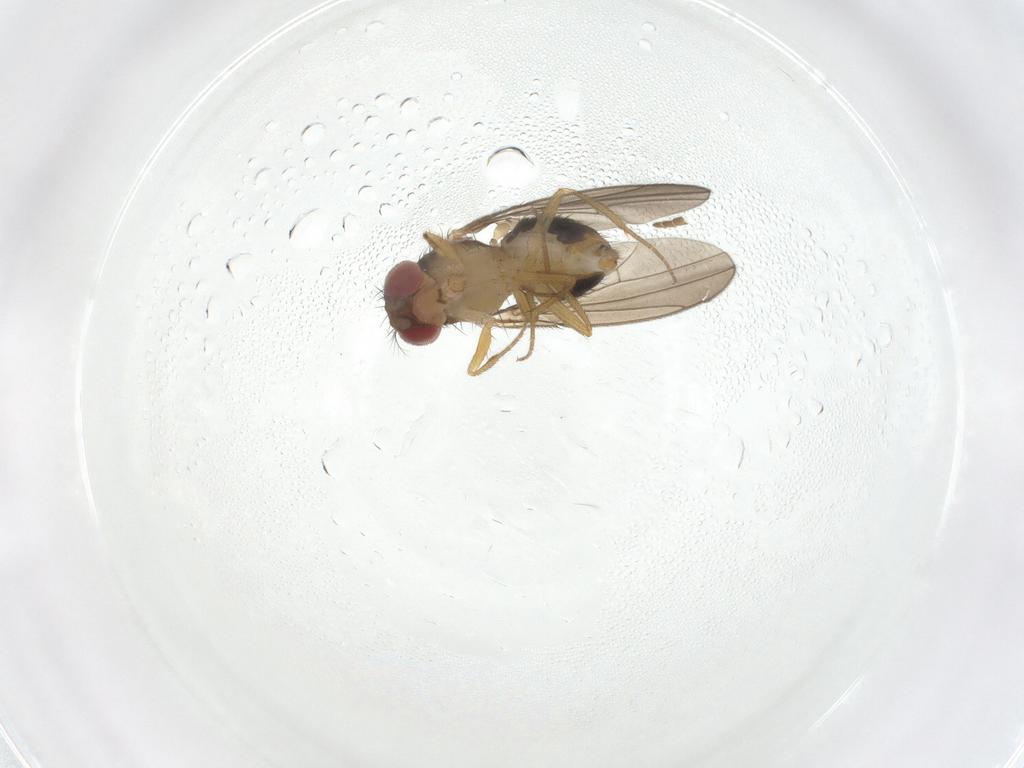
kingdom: Animalia
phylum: Arthropoda
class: Insecta
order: Diptera
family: Drosophilidae
